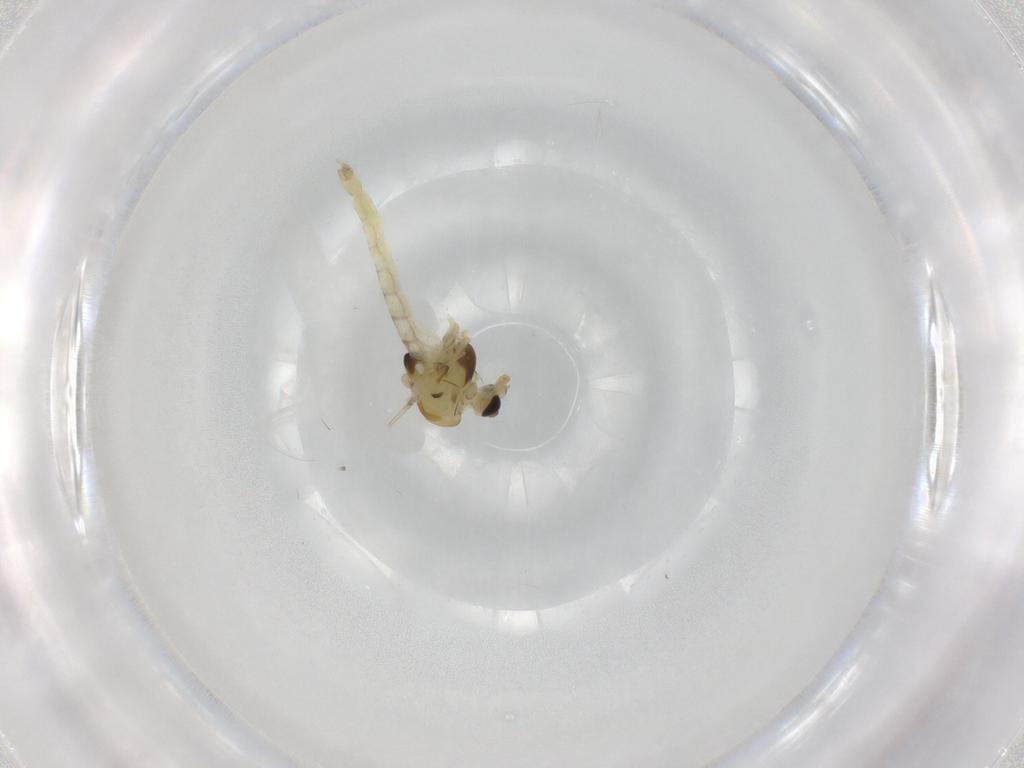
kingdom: Animalia
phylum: Arthropoda
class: Insecta
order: Diptera
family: Chironomidae
